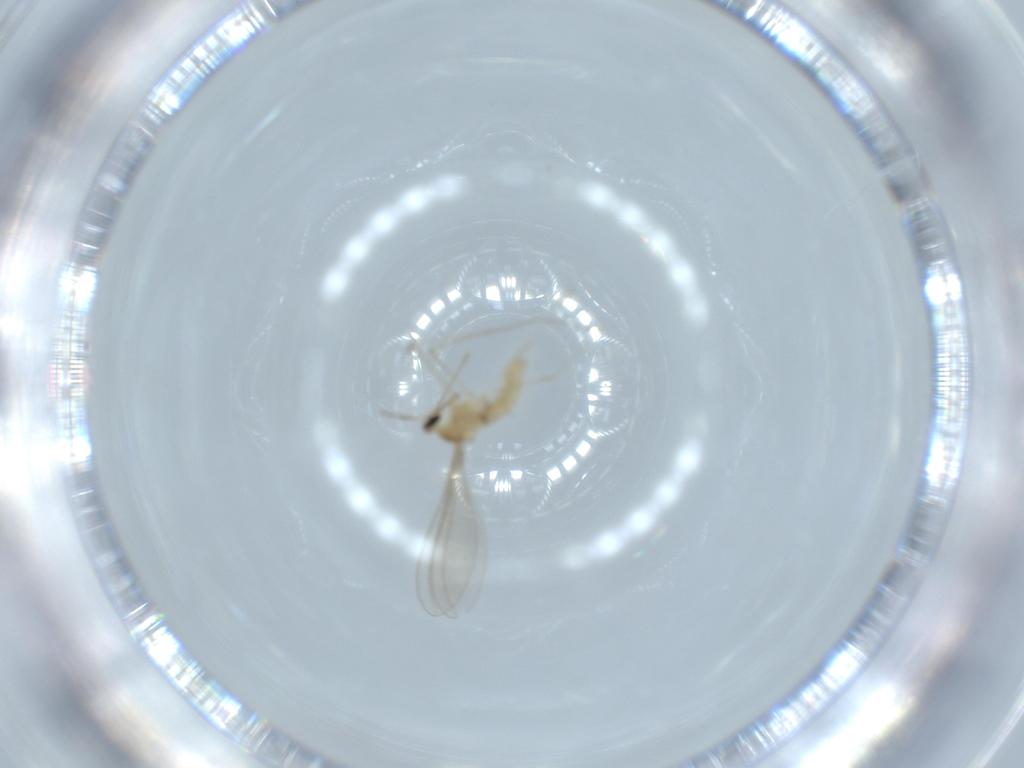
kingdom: Animalia
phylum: Arthropoda
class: Insecta
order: Diptera
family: Cecidomyiidae
